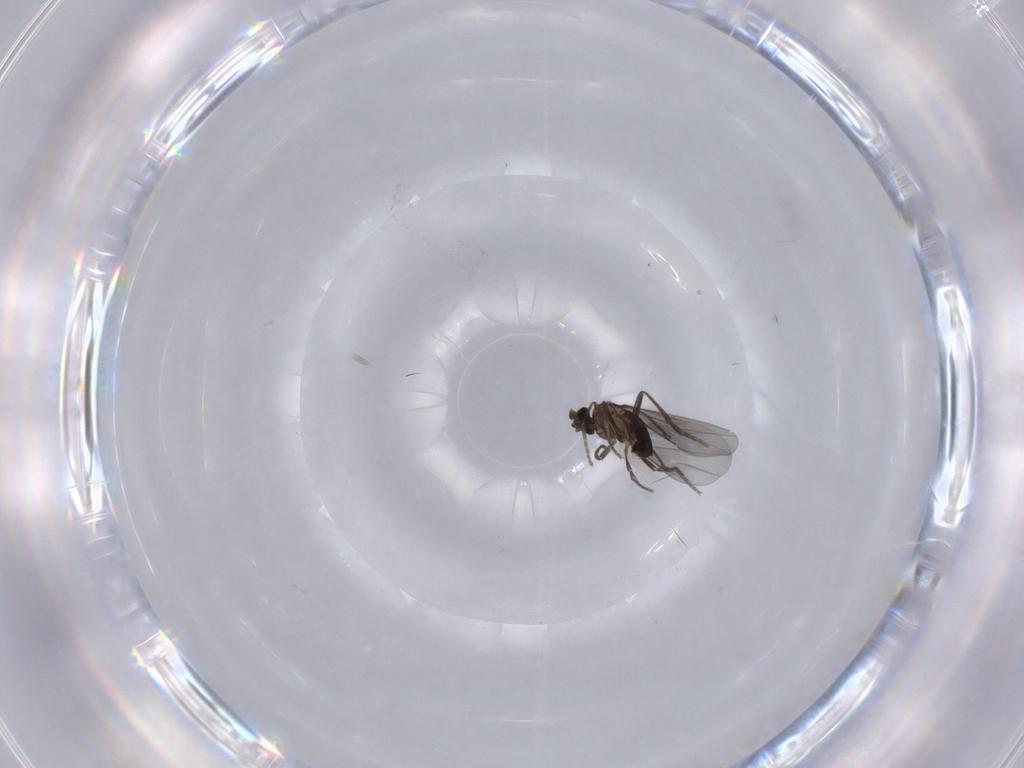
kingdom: Animalia
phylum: Arthropoda
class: Insecta
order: Diptera
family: Phoridae
